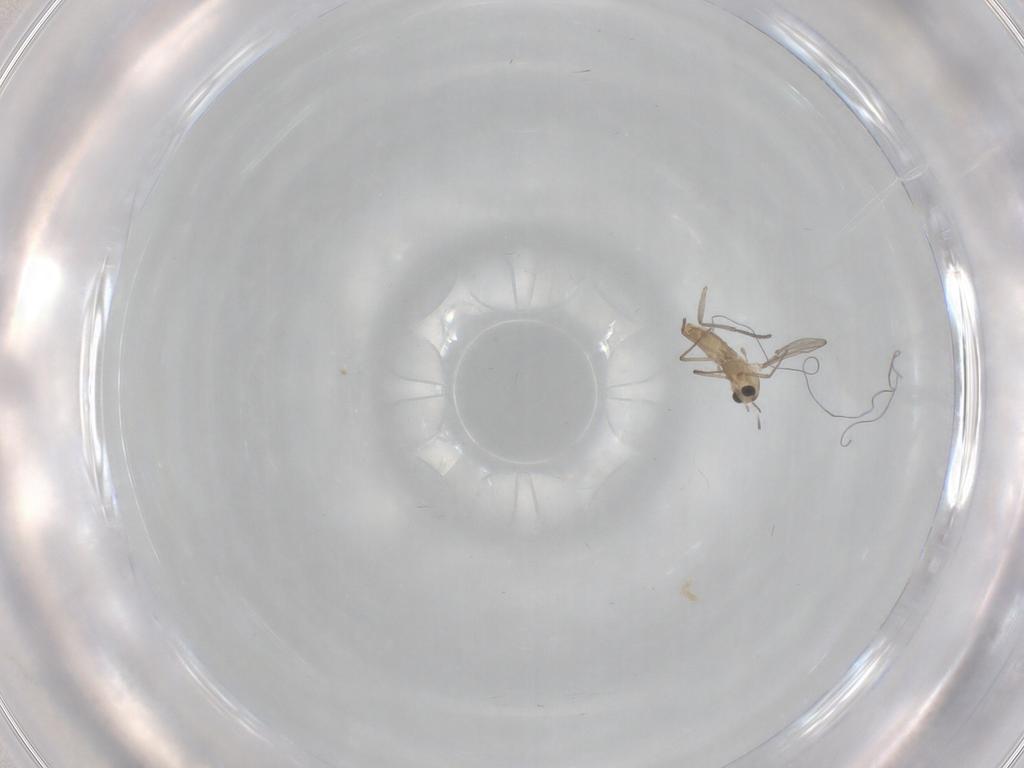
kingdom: Animalia
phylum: Arthropoda
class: Insecta
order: Diptera
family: Chironomidae
